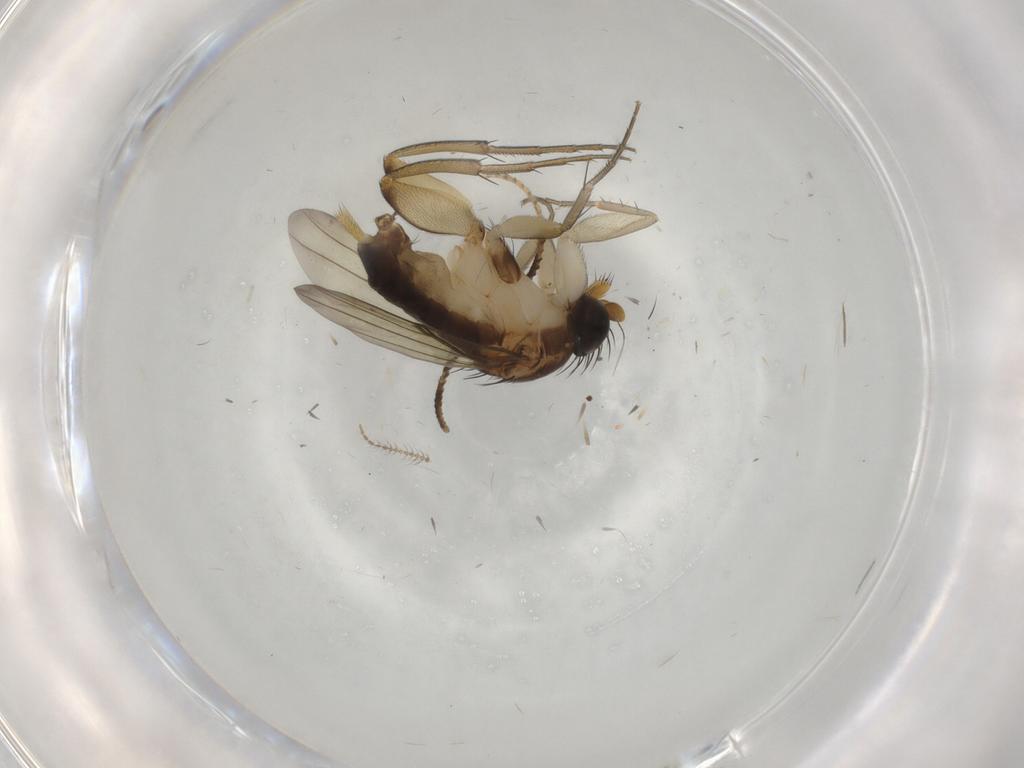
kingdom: Animalia
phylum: Arthropoda
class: Insecta
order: Diptera
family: Phoridae
